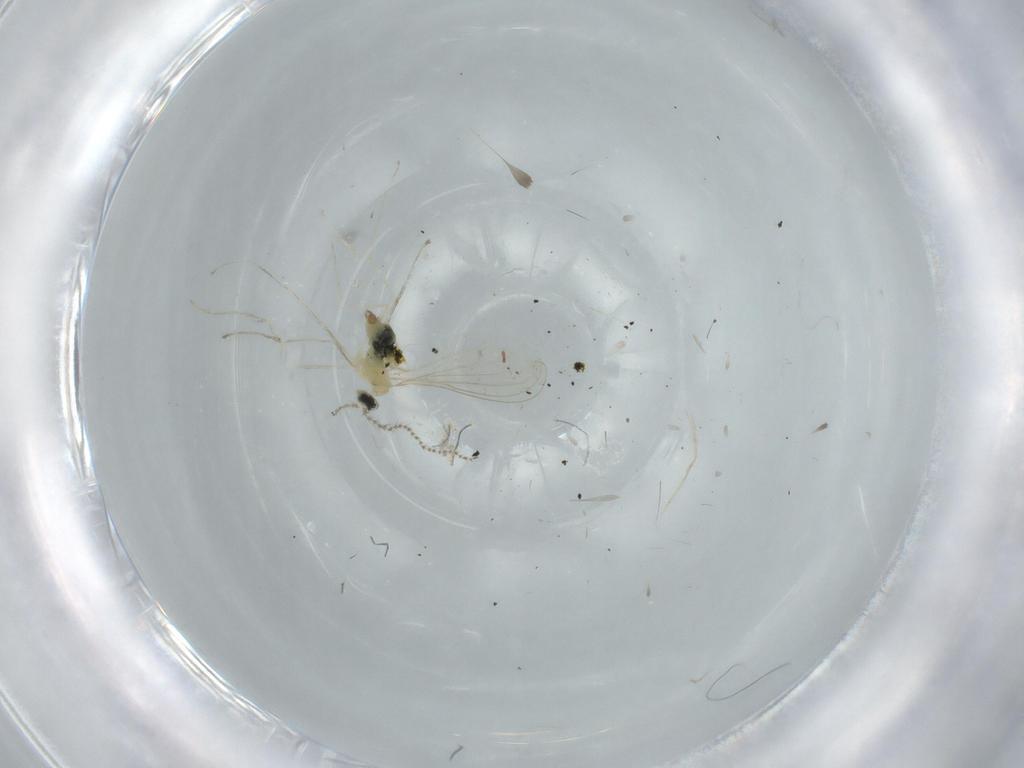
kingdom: Animalia
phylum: Arthropoda
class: Insecta
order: Diptera
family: Cecidomyiidae
